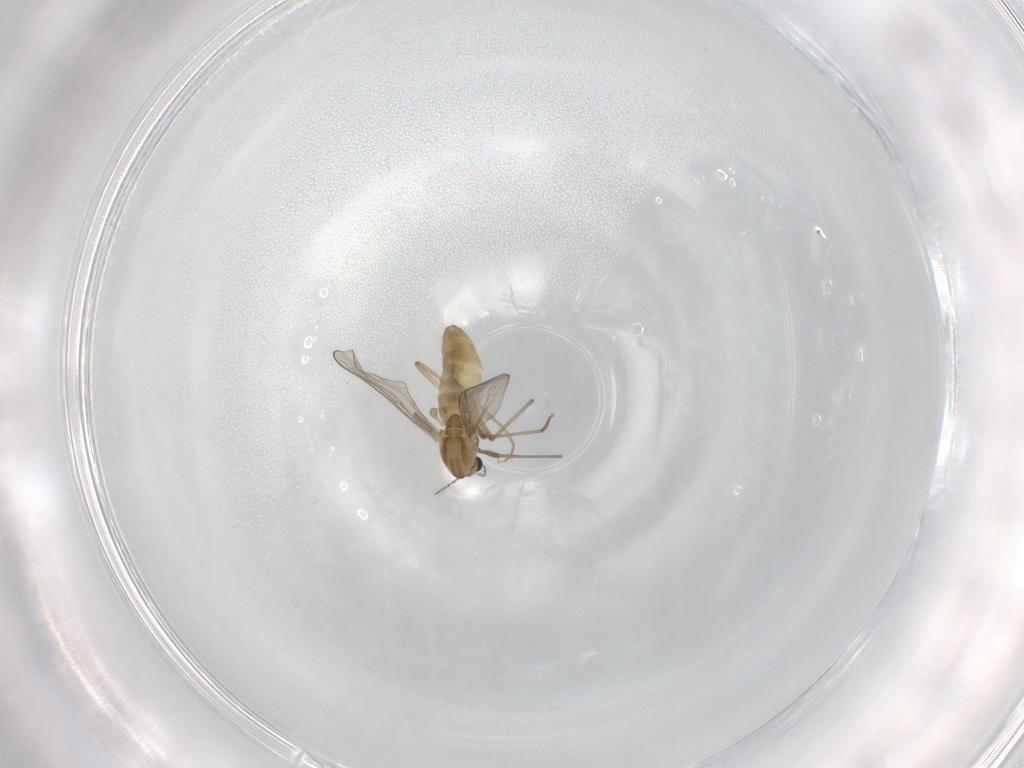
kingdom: Animalia
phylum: Arthropoda
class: Insecta
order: Diptera
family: Chironomidae
